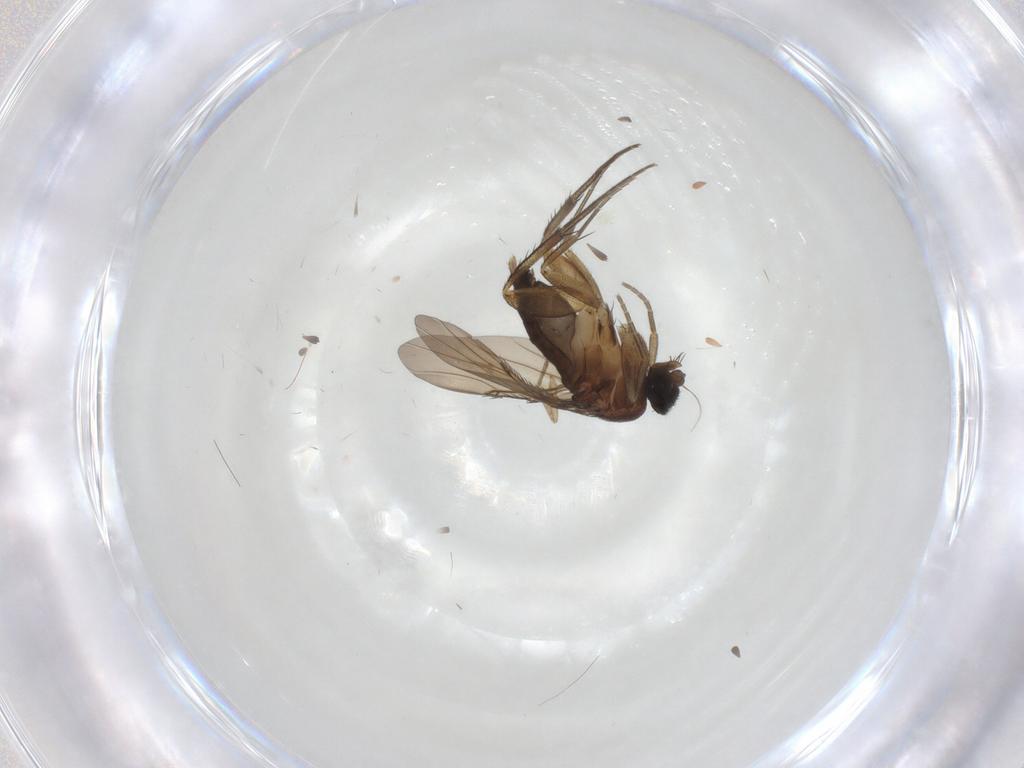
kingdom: Animalia
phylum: Arthropoda
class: Insecta
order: Diptera
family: Phoridae
